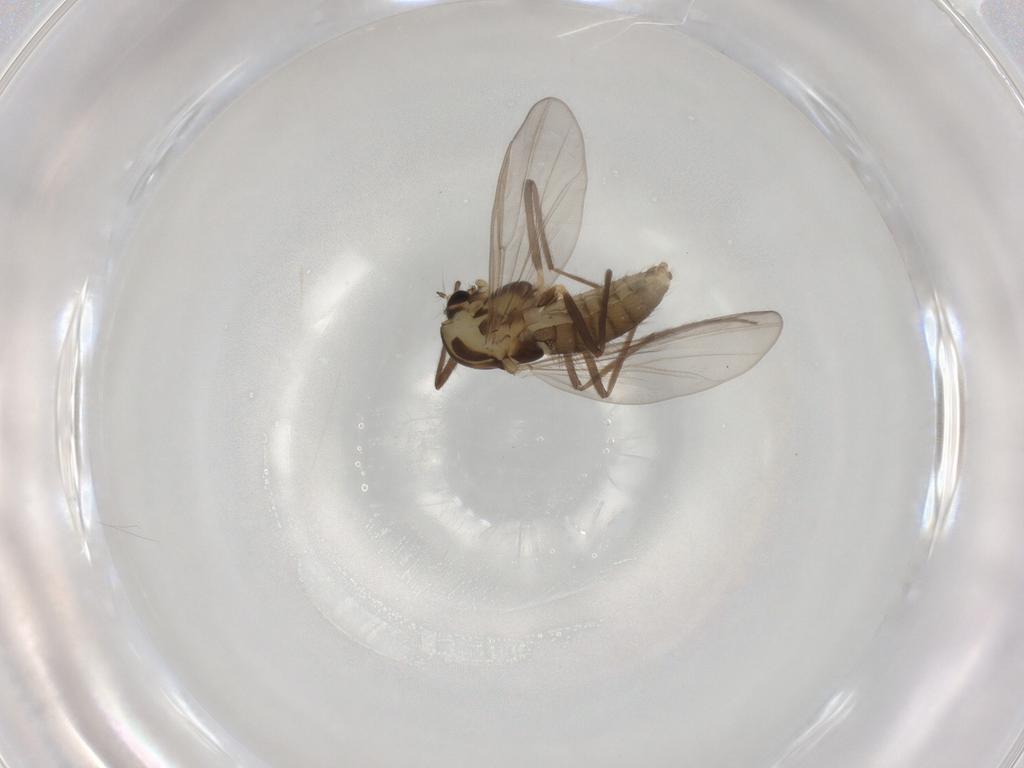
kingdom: Animalia
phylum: Arthropoda
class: Insecta
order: Diptera
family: Chironomidae
